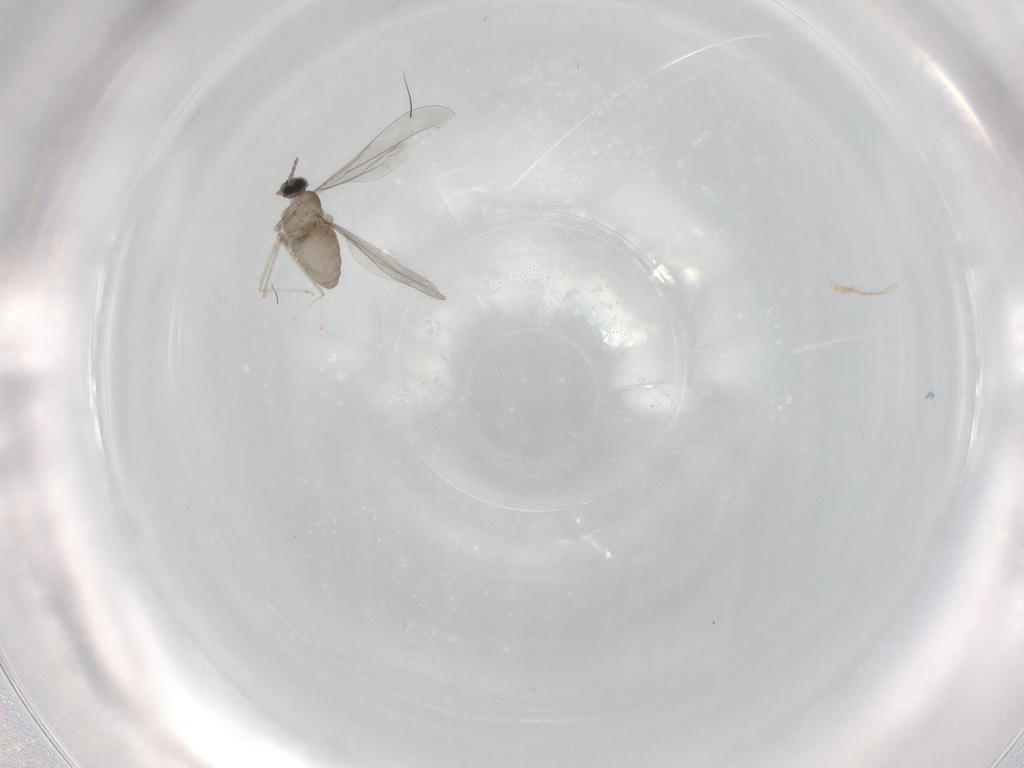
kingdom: Animalia
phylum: Arthropoda
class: Insecta
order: Diptera
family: Cecidomyiidae
